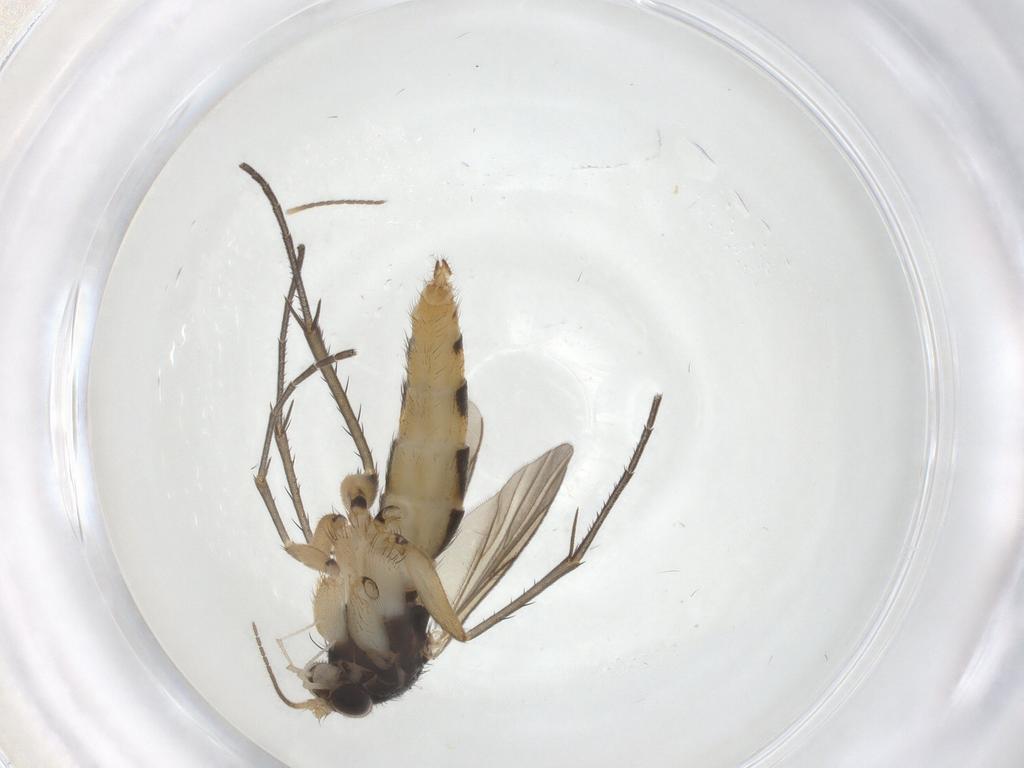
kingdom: Animalia
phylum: Arthropoda
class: Insecta
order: Diptera
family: Mycetophilidae
